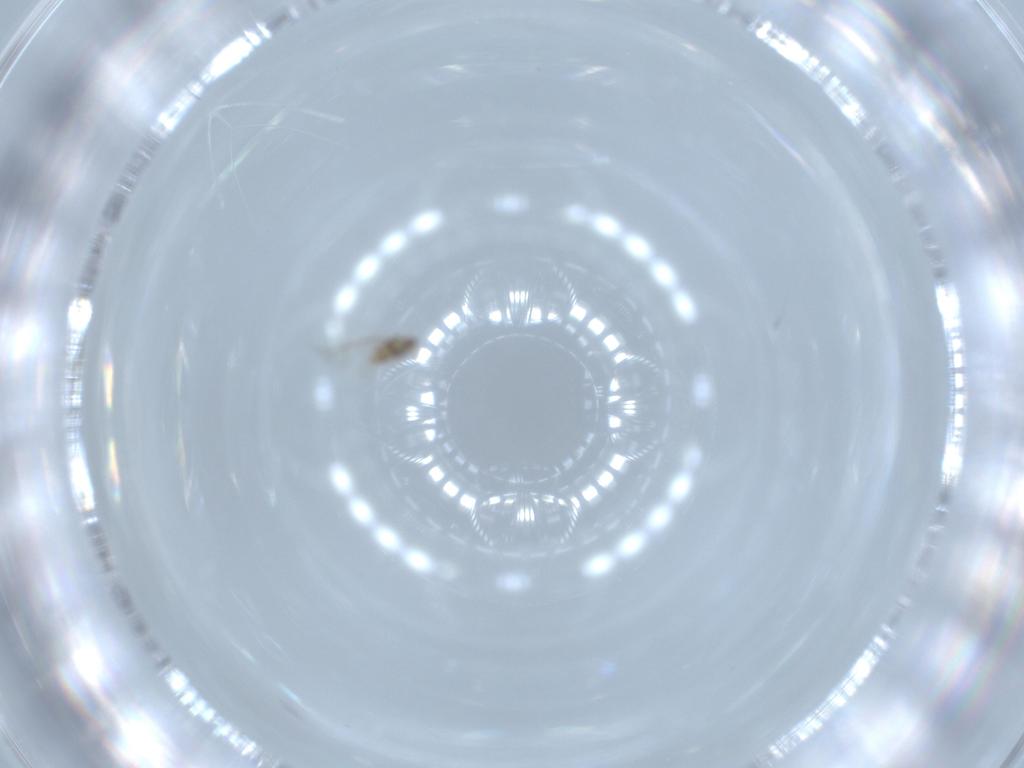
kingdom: Animalia
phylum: Arthropoda
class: Insecta
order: Hymenoptera
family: Aphelinidae
